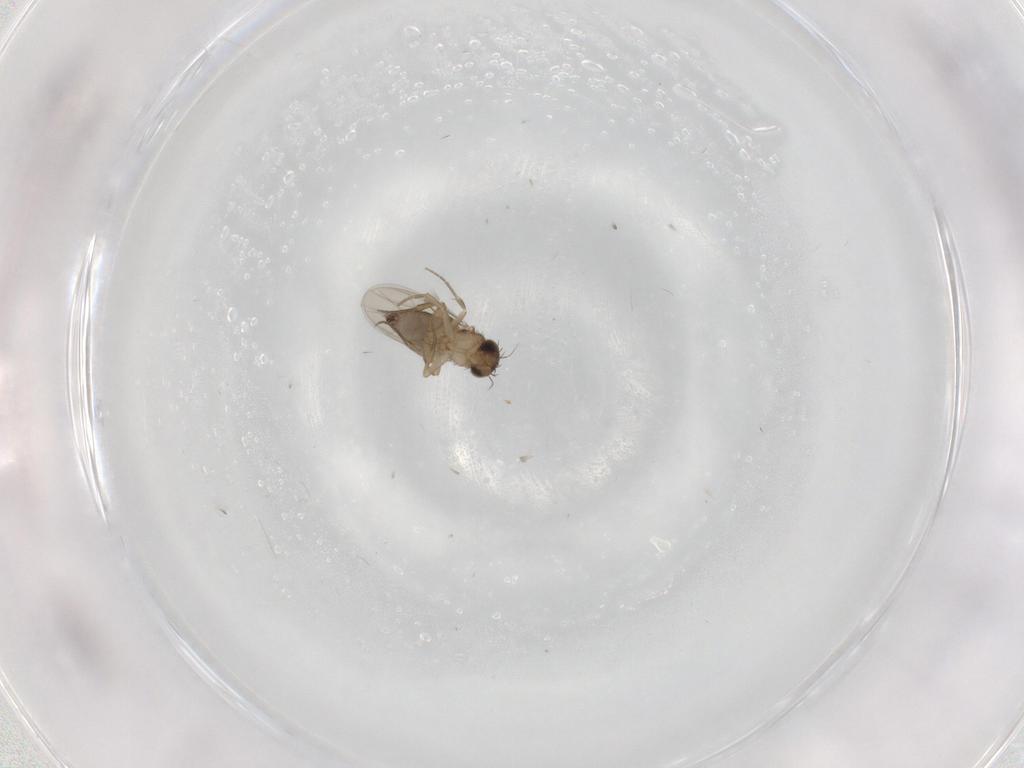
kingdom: Animalia
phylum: Arthropoda
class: Insecta
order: Diptera
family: Phoridae
